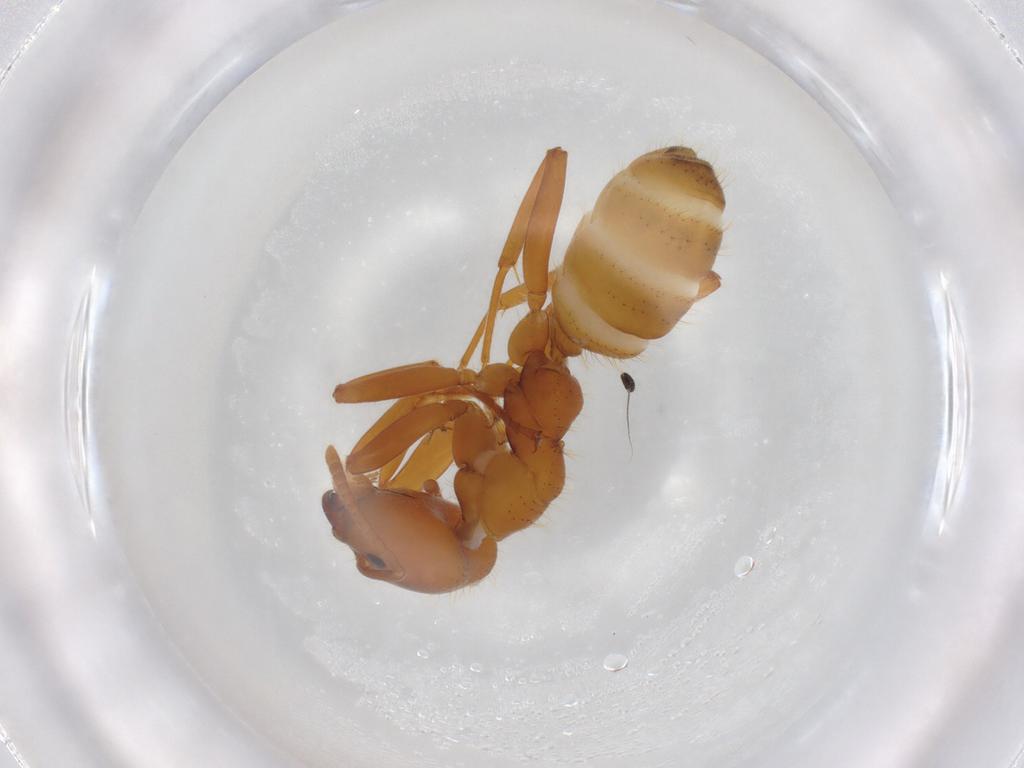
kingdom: Animalia
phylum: Arthropoda
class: Insecta
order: Hymenoptera
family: Formicidae
